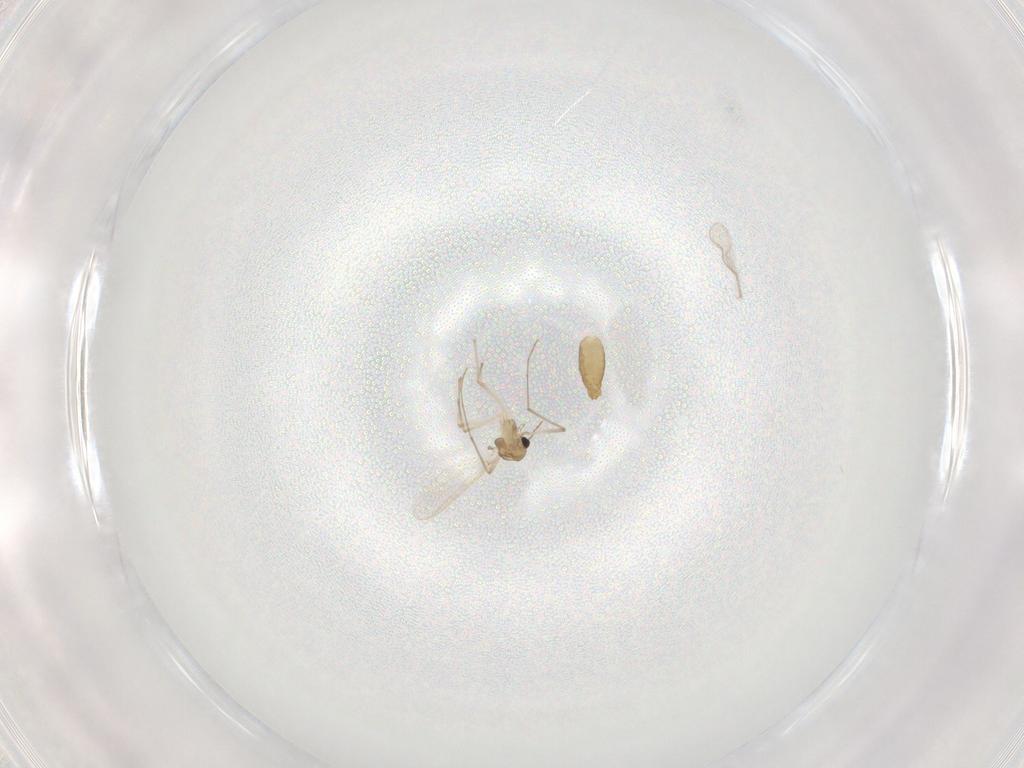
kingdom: Animalia
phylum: Arthropoda
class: Insecta
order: Diptera
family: Chironomidae
